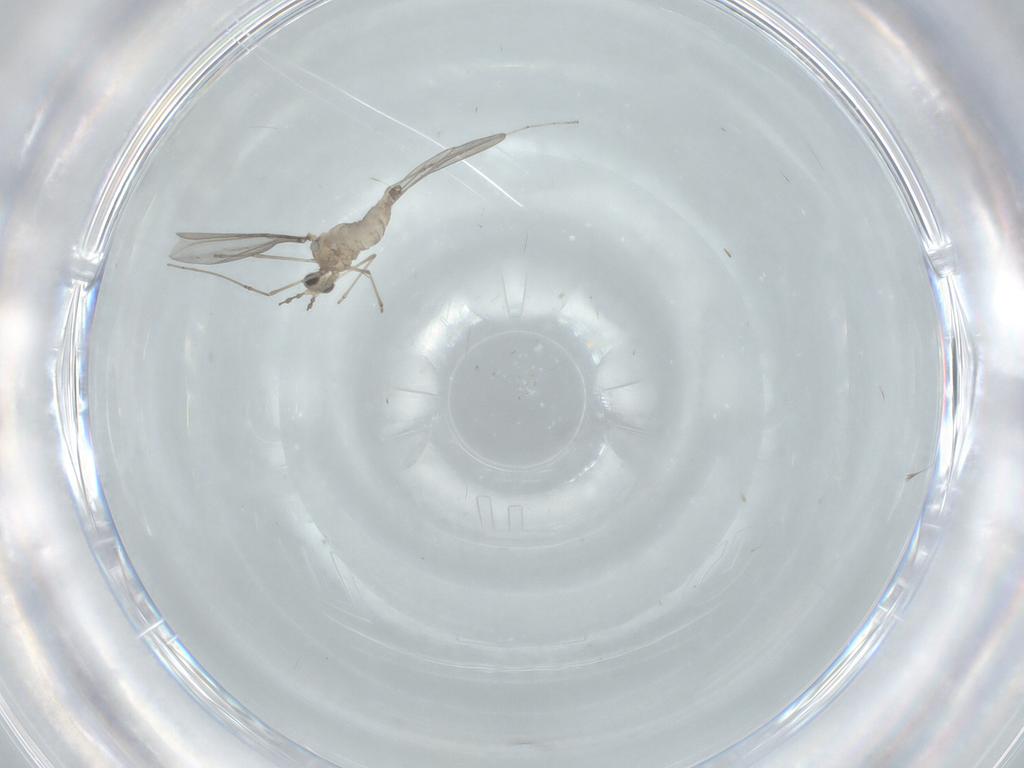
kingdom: Animalia
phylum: Arthropoda
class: Insecta
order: Diptera
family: Cecidomyiidae
